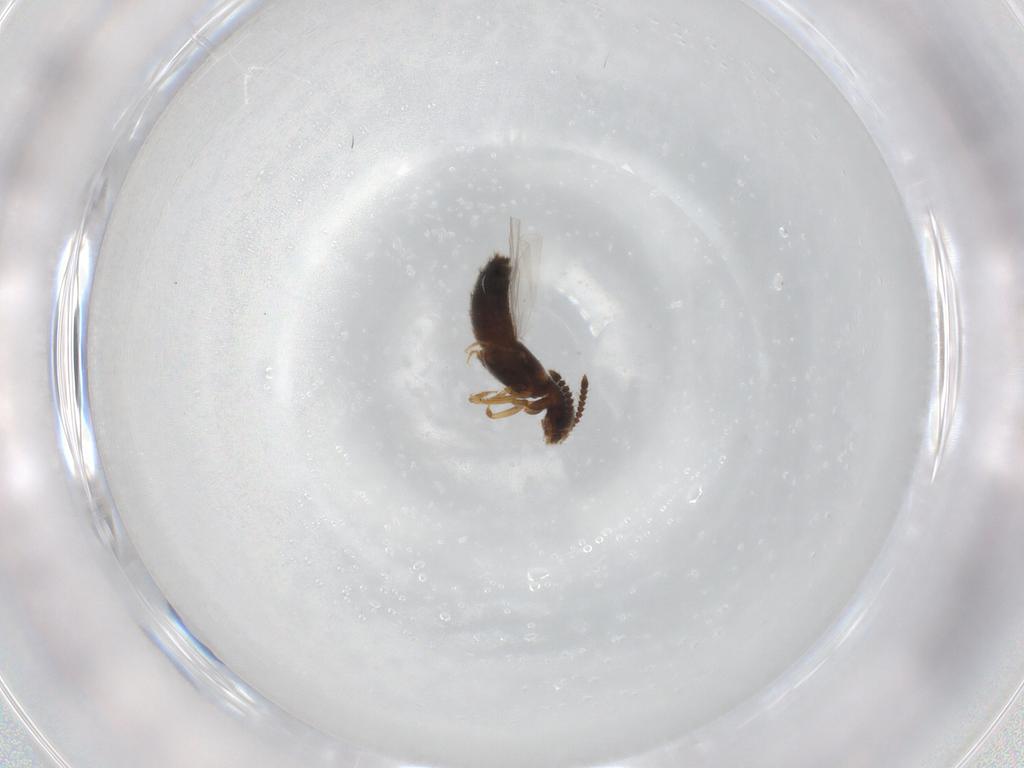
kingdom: Animalia
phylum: Arthropoda
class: Insecta
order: Coleoptera
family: Staphylinidae
